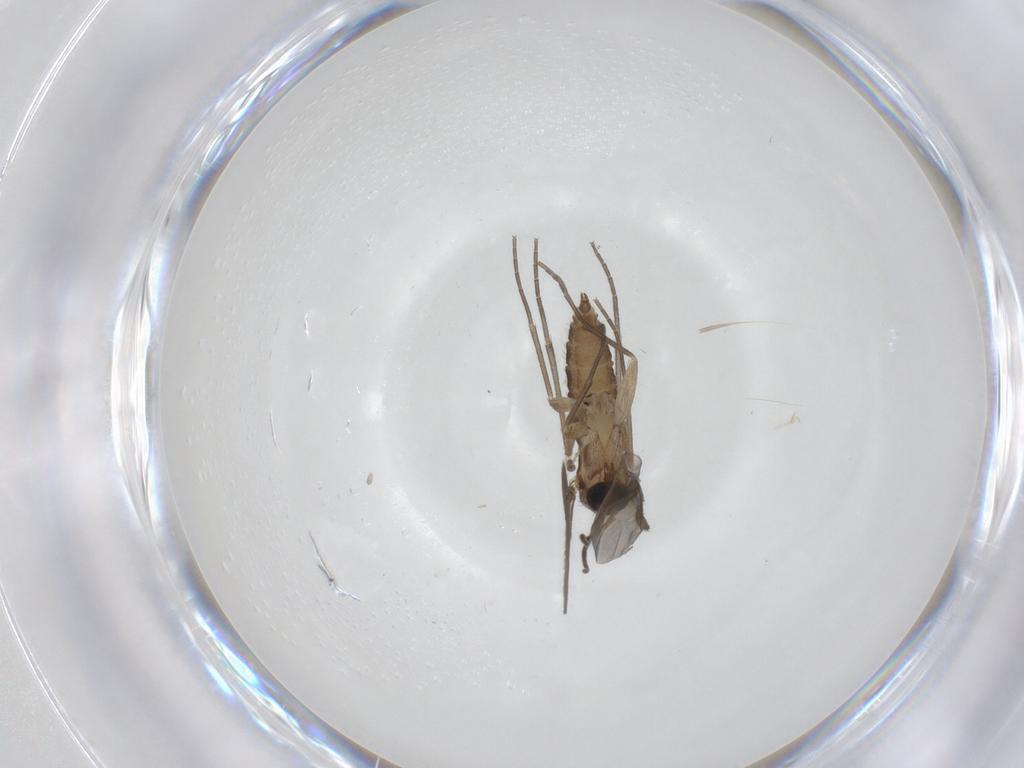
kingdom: Animalia
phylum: Arthropoda
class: Insecta
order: Diptera
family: Sciaridae
